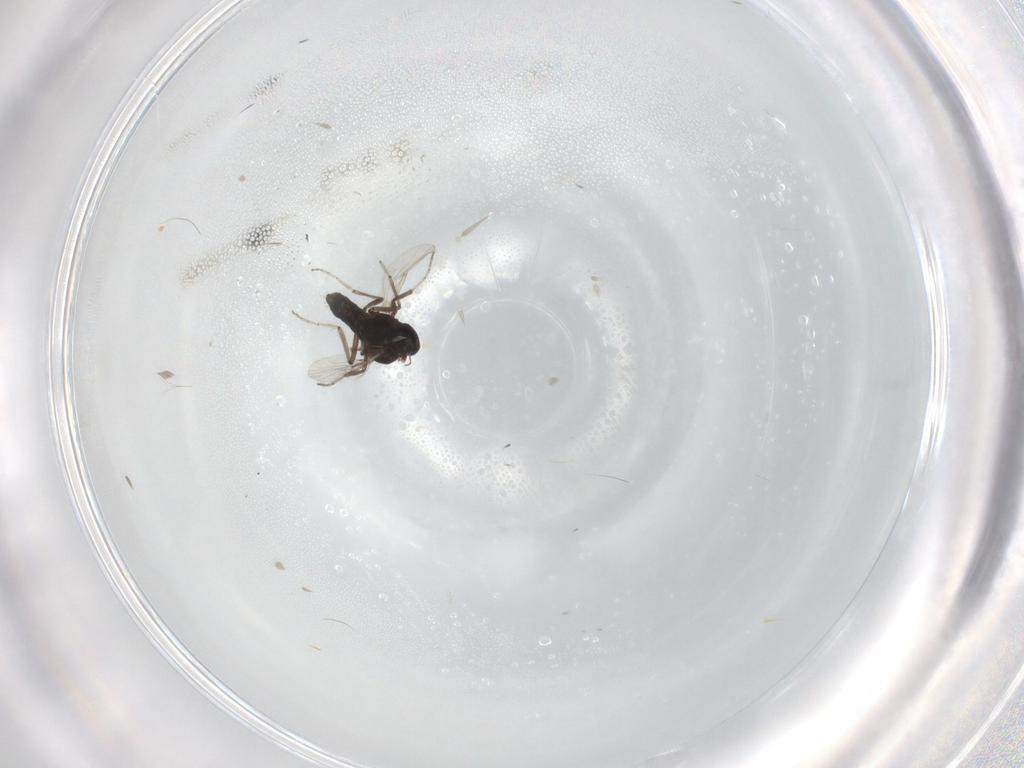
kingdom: Animalia
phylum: Arthropoda
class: Insecta
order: Diptera
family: Ceratopogonidae
